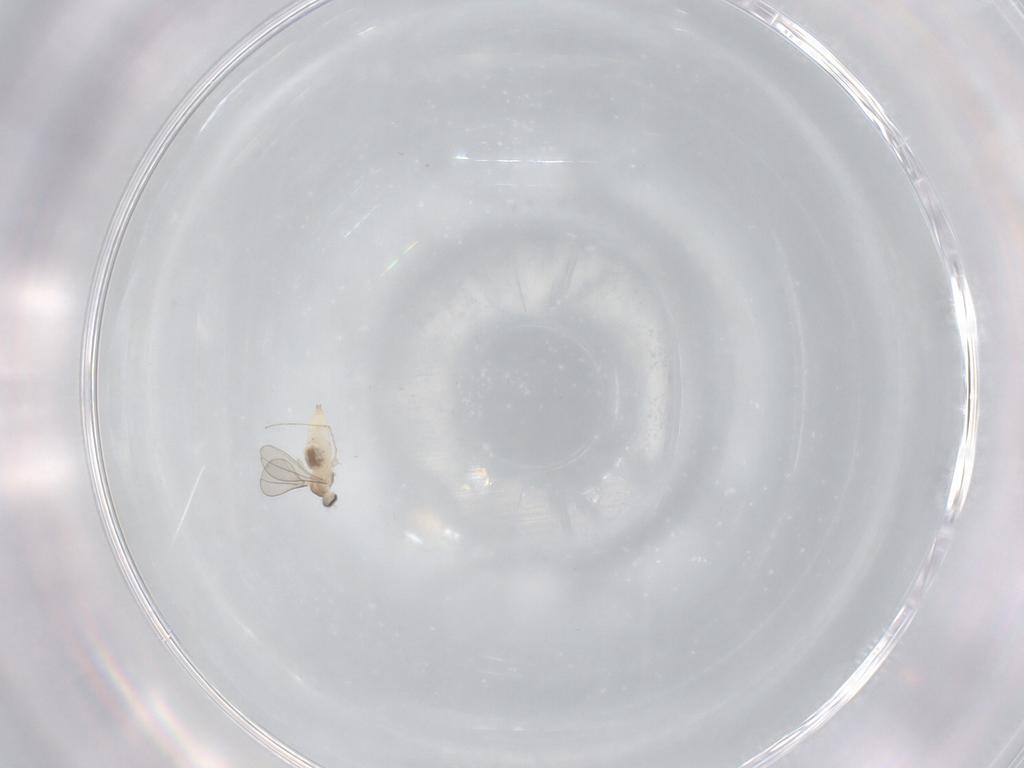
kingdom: Animalia
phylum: Arthropoda
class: Insecta
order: Diptera
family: Cecidomyiidae
